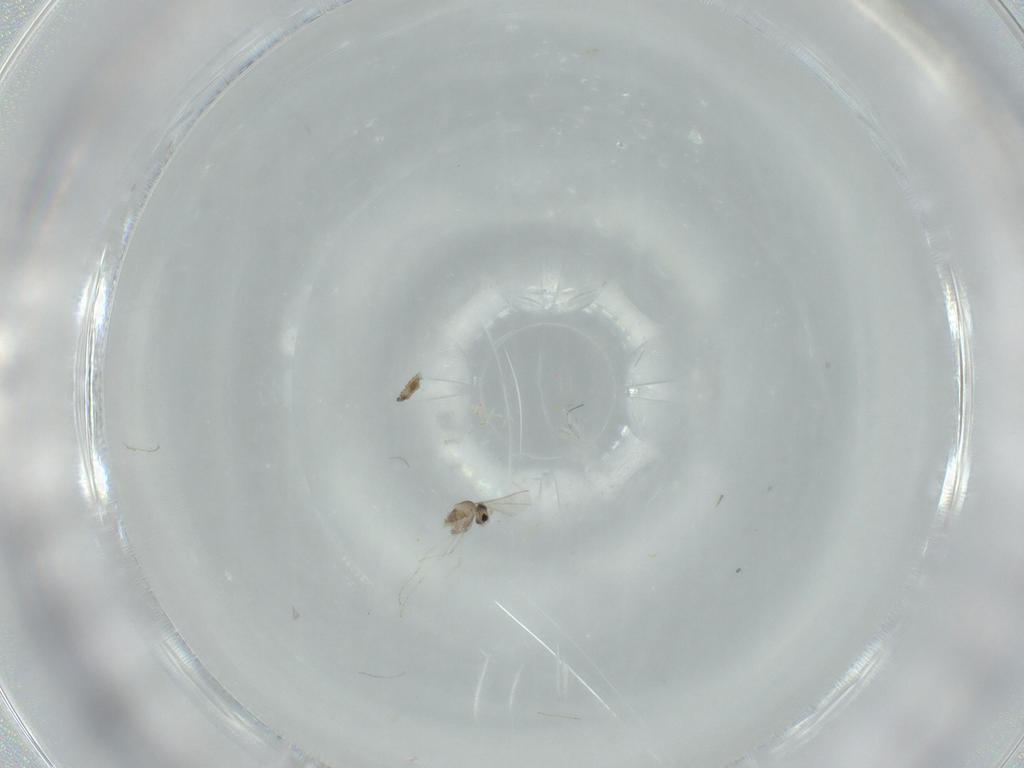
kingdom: Animalia
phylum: Arthropoda
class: Insecta
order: Diptera
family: Cecidomyiidae
